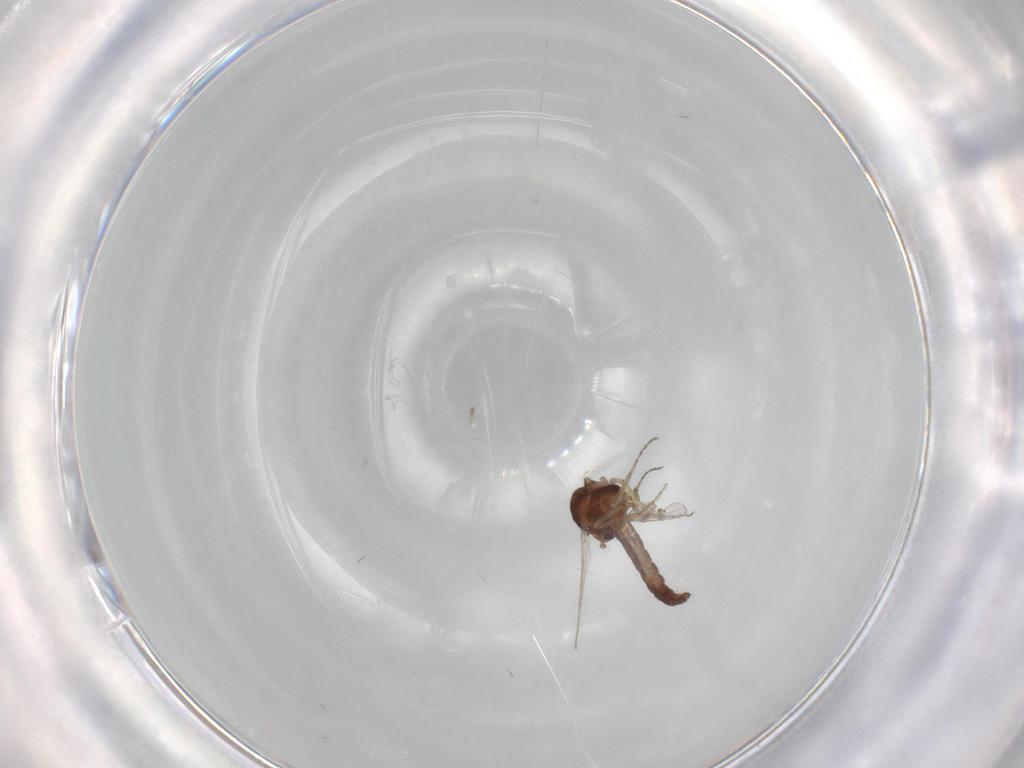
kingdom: Animalia
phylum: Arthropoda
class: Insecta
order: Diptera
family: Ceratopogonidae
